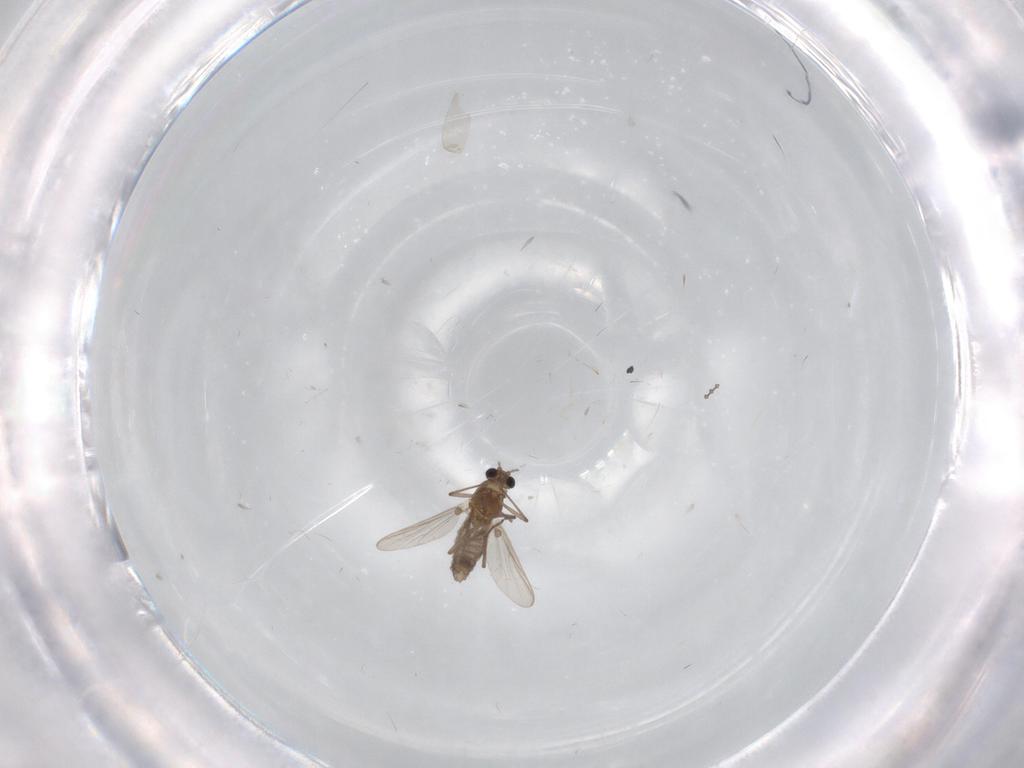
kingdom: Animalia
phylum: Arthropoda
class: Insecta
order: Diptera
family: Chironomidae
